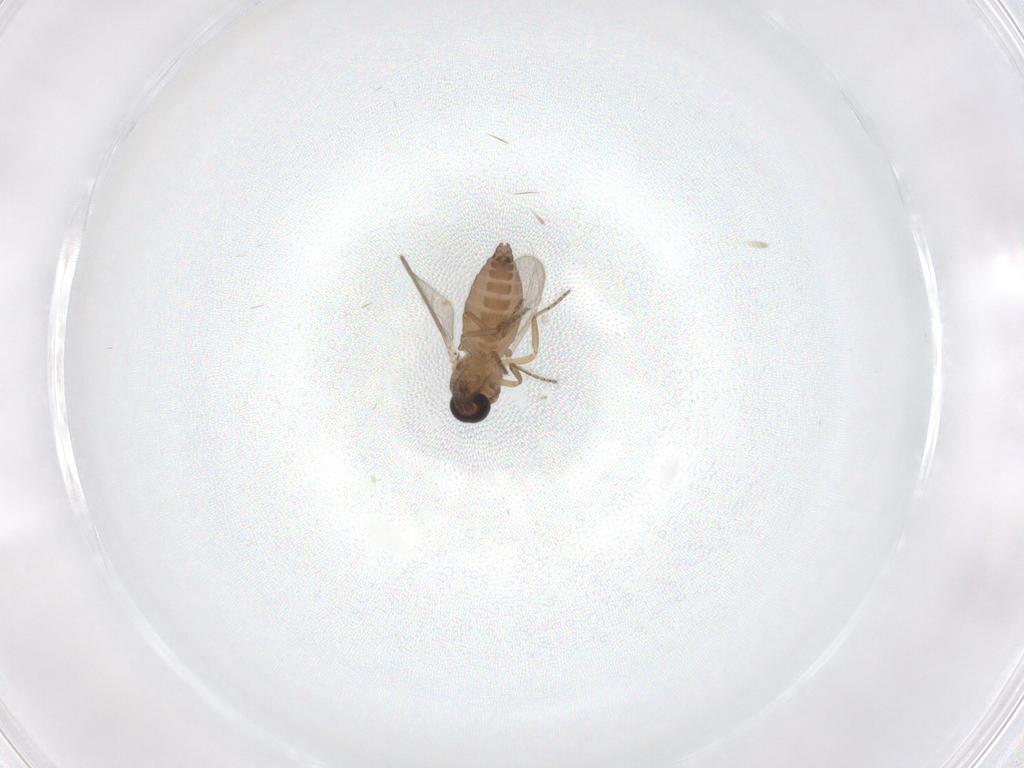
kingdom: Animalia
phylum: Arthropoda
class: Insecta
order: Diptera
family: Ceratopogonidae
